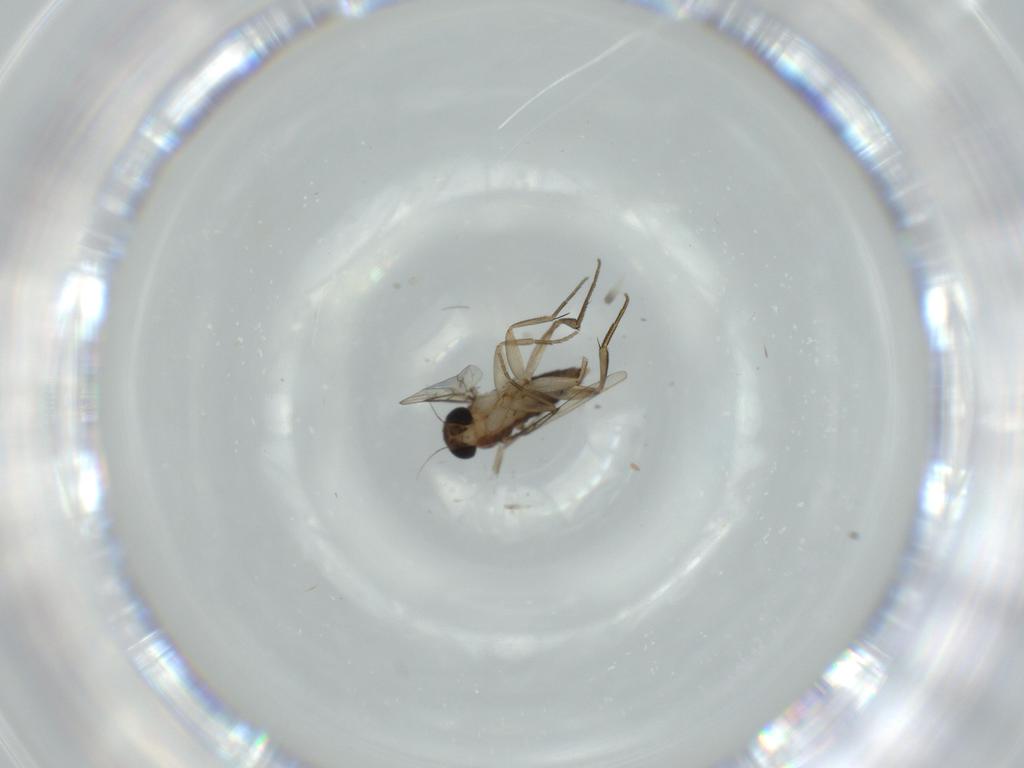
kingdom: Animalia
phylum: Arthropoda
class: Insecta
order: Diptera
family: Phoridae
